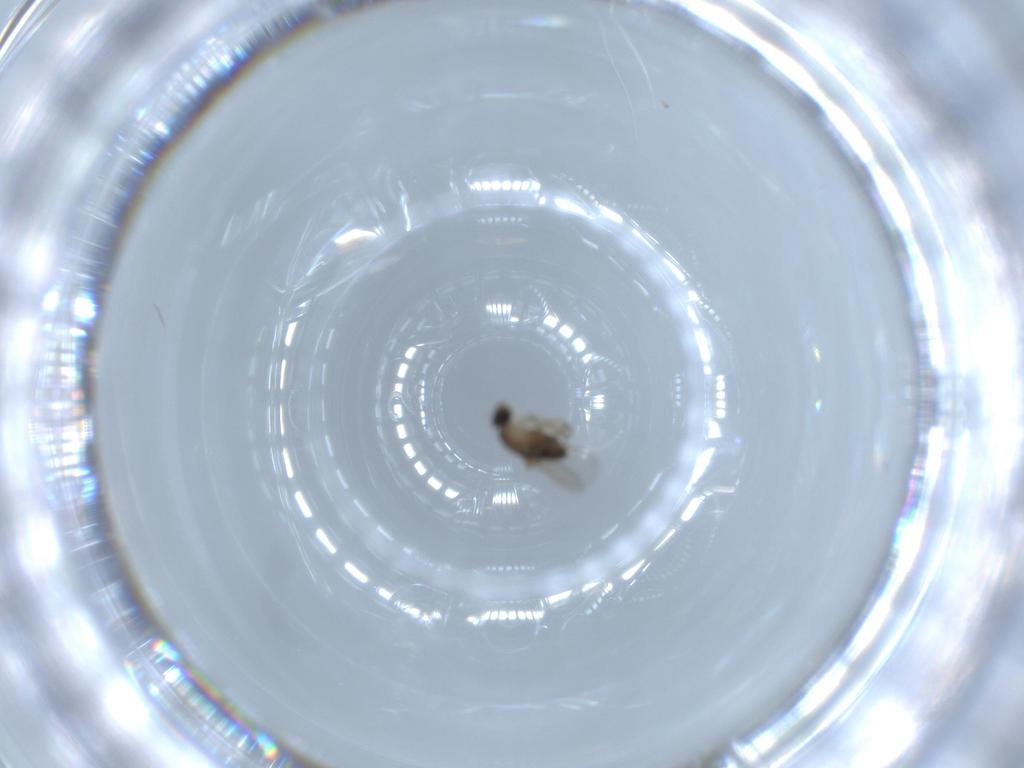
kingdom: Animalia
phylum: Arthropoda
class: Insecta
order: Diptera
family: Phoridae
